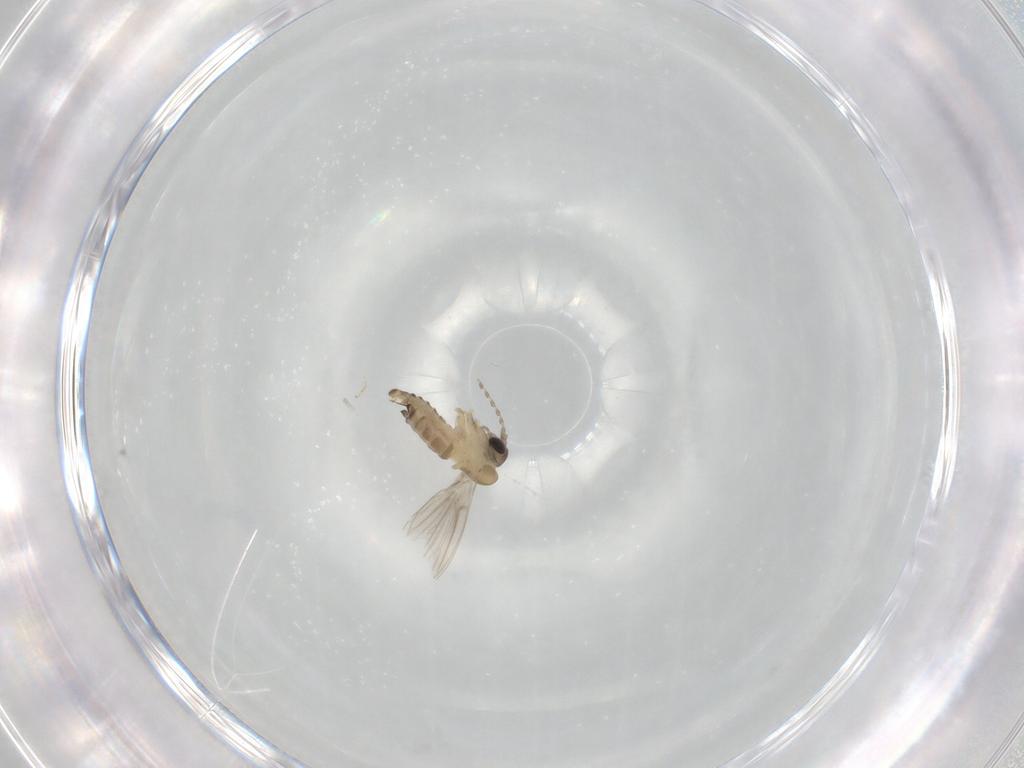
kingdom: Animalia
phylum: Arthropoda
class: Insecta
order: Diptera
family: Psychodidae
